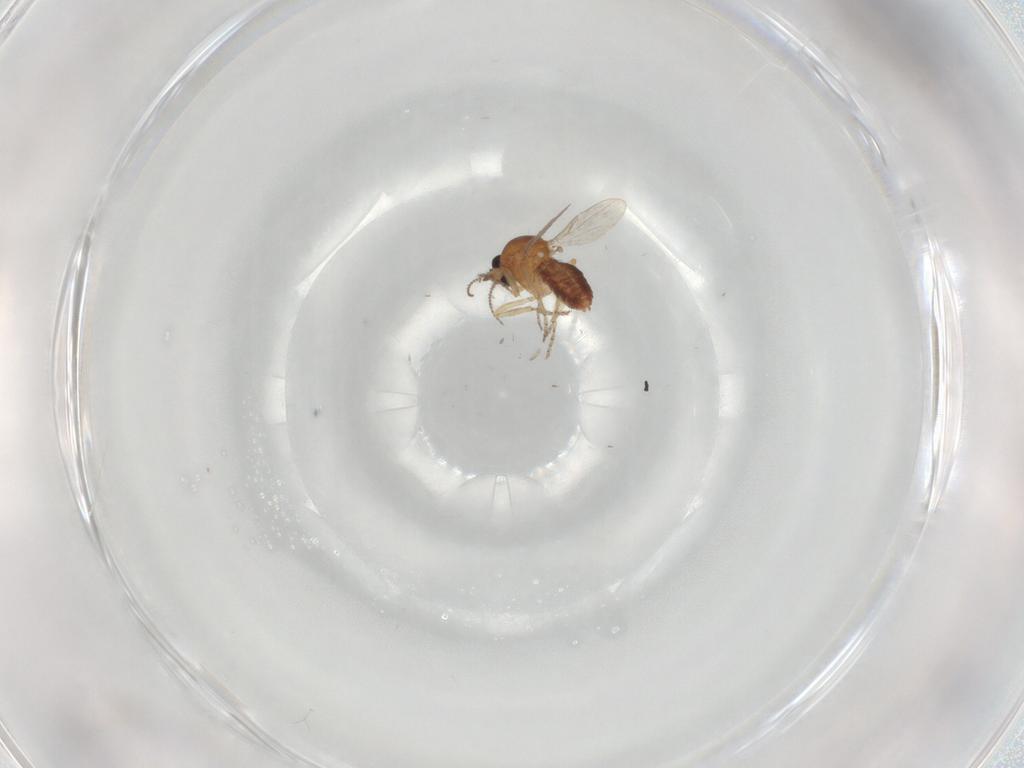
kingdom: Animalia
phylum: Arthropoda
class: Insecta
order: Diptera
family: Ceratopogonidae
